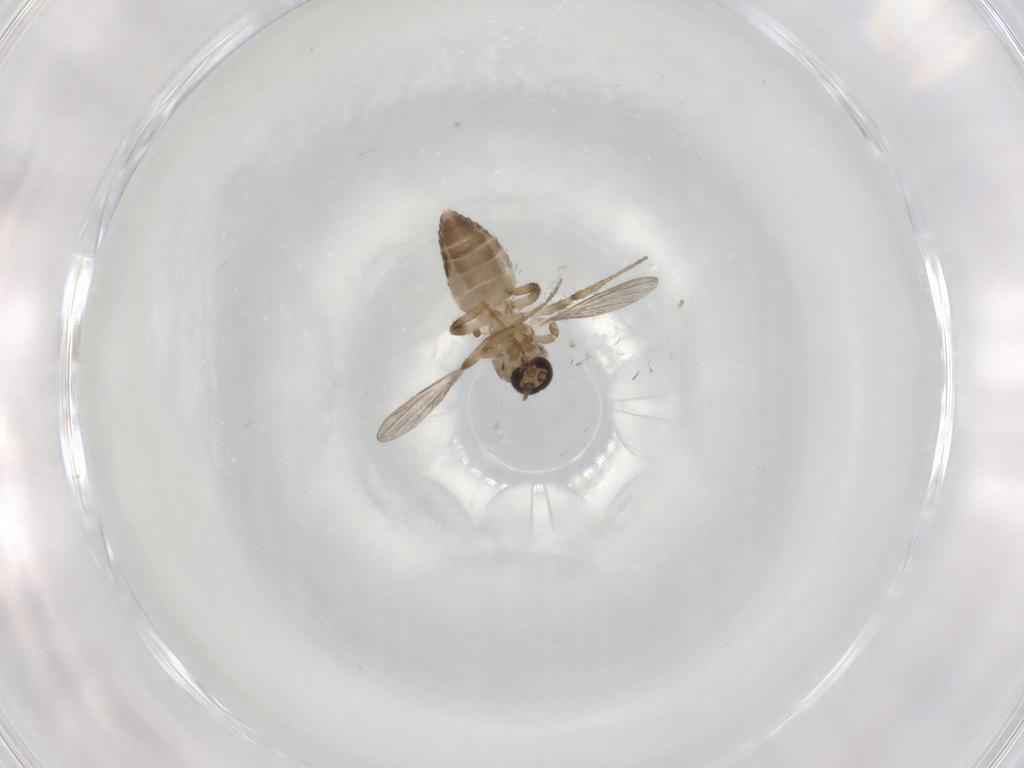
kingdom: Animalia
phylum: Arthropoda
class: Insecta
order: Diptera
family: Ceratopogonidae
